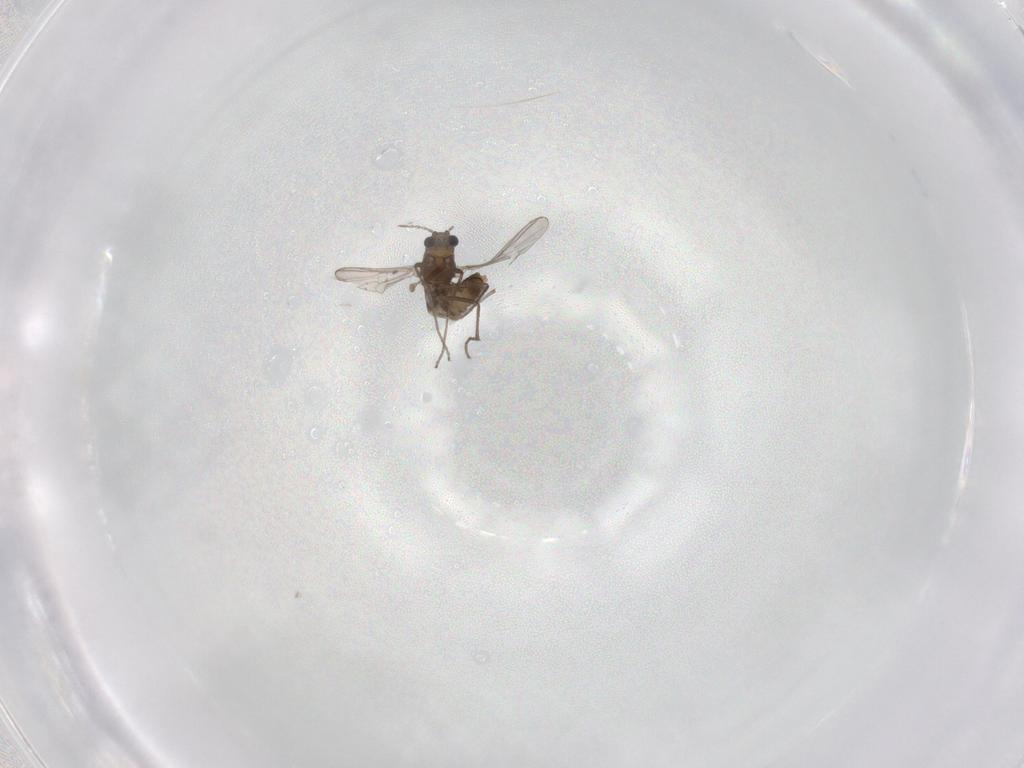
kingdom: Animalia
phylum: Arthropoda
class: Insecta
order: Diptera
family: Chironomidae
